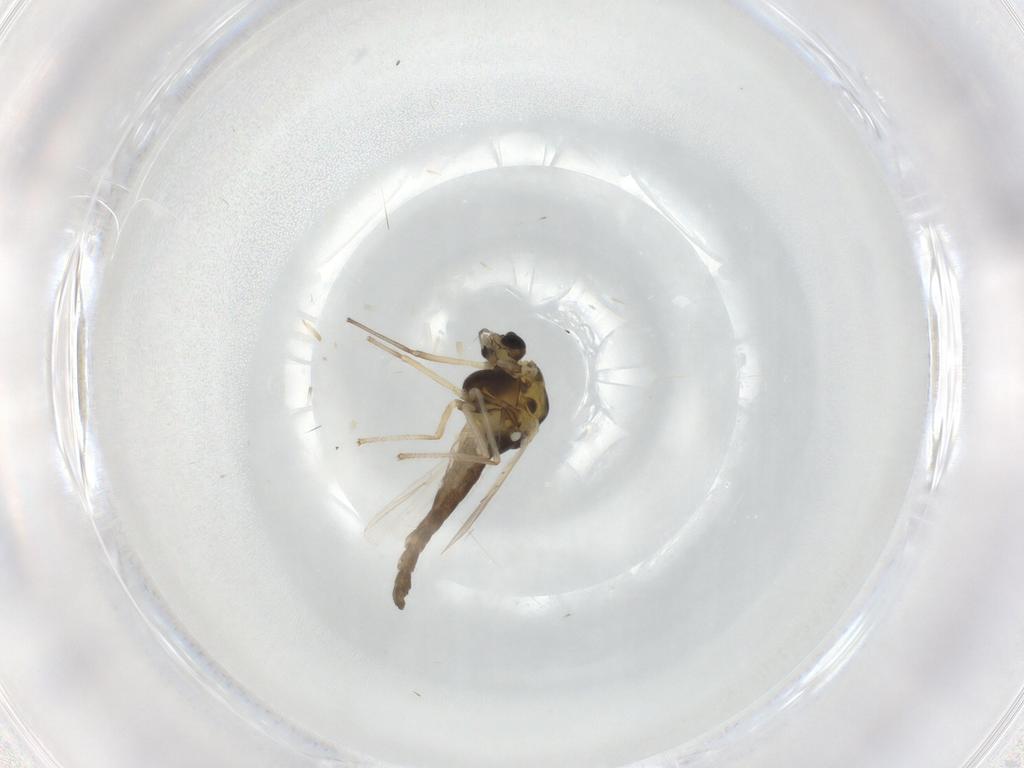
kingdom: Animalia
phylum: Arthropoda
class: Insecta
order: Diptera
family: Chironomidae
